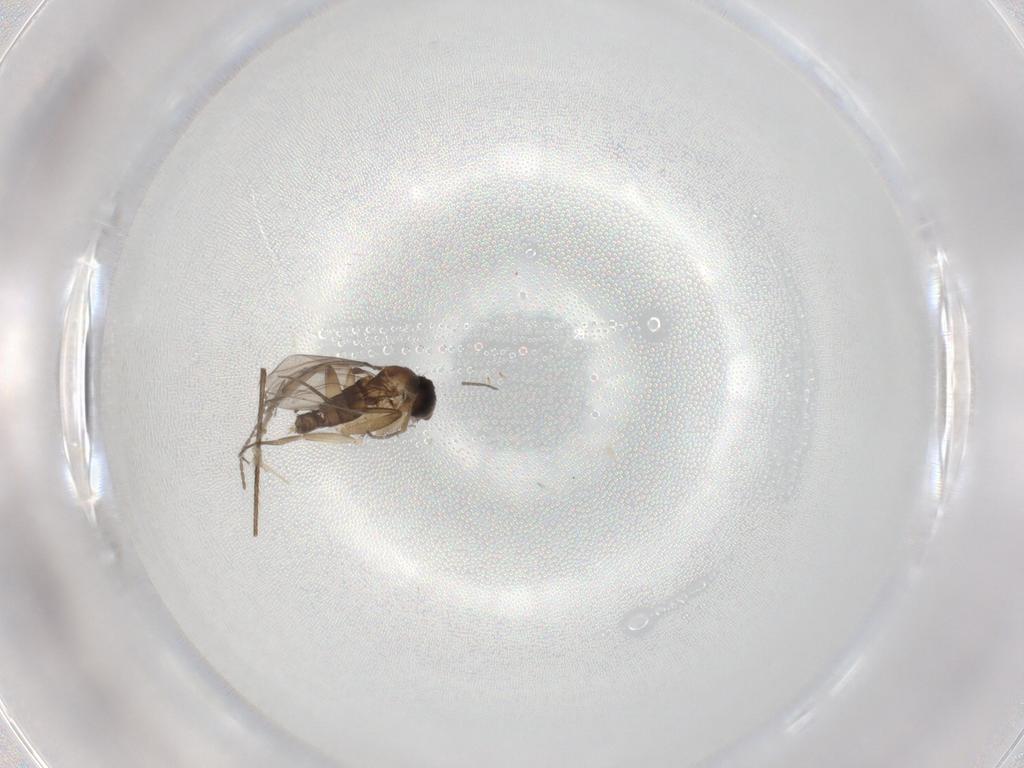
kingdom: Animalia
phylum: Arthropoda
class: Insecta
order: Diptera
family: Phoridae
